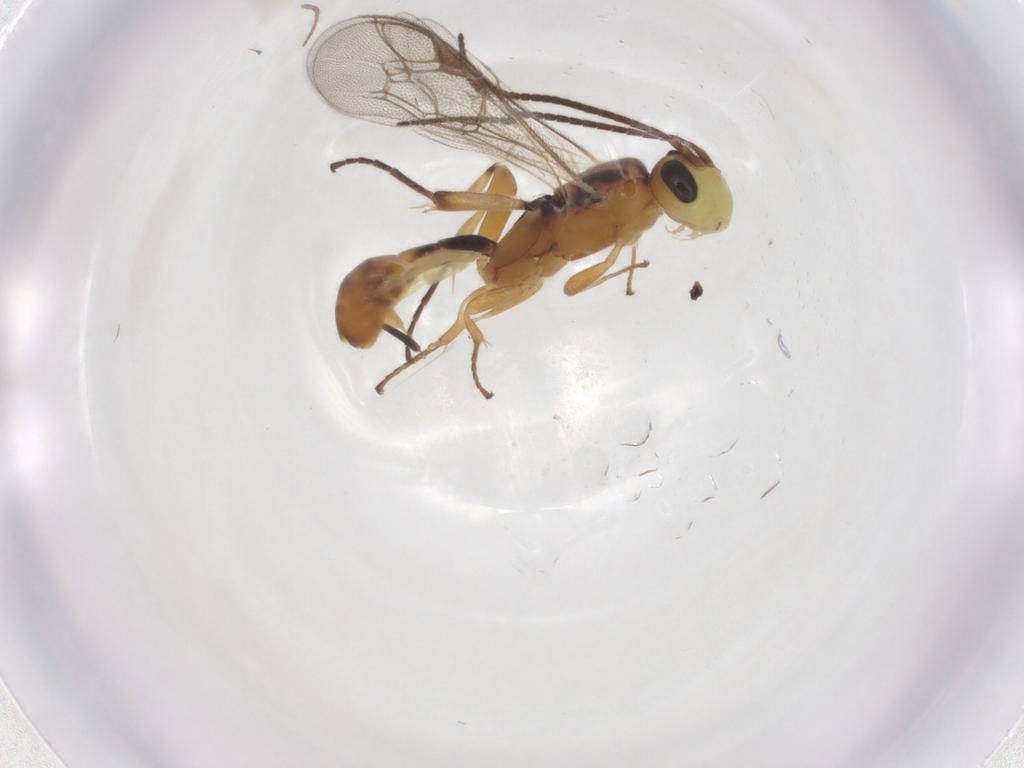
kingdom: Animalia
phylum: Arthropoda
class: Insecta
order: Hymenoptera
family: Ichneumonidae
